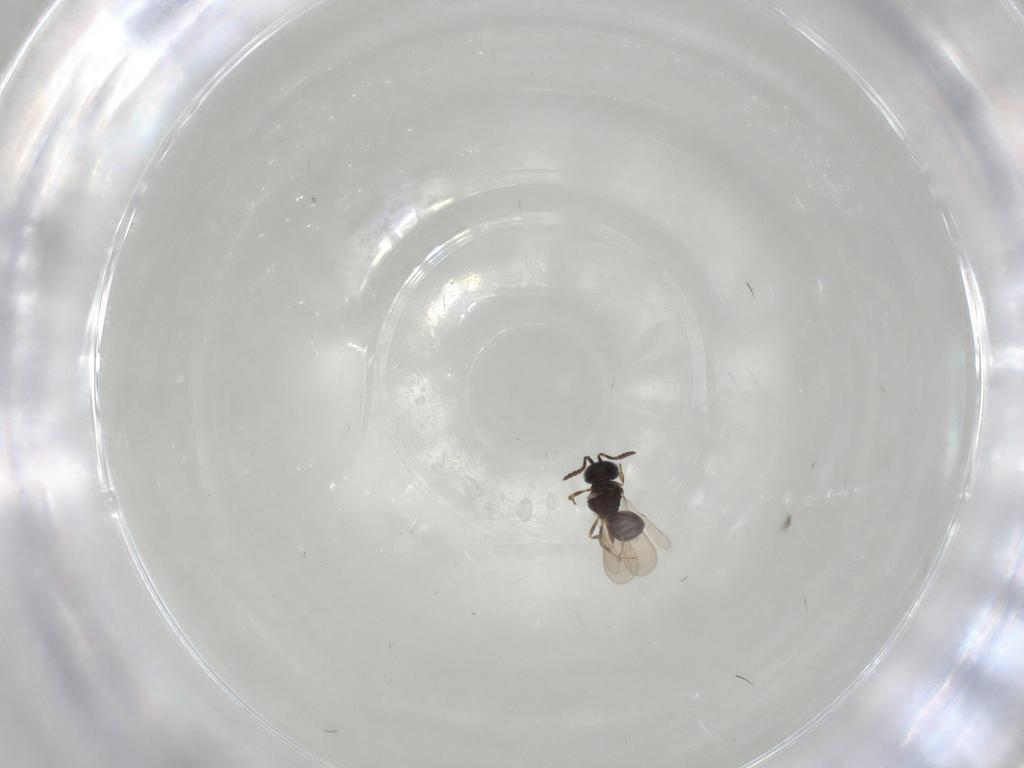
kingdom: Animalia
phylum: Arthropoda
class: Insecta
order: Hymenoptera
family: Scelionidae
